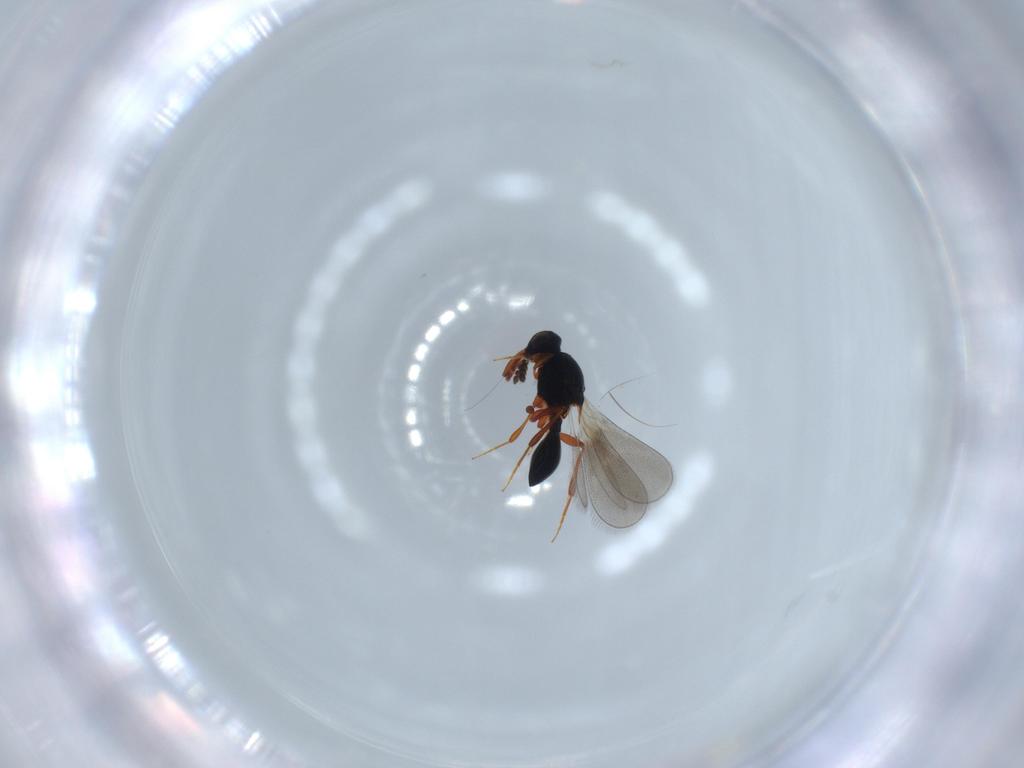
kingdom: Animalia
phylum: Arthropoda
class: Insecta
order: Hymenoptera
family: Platygastridae
